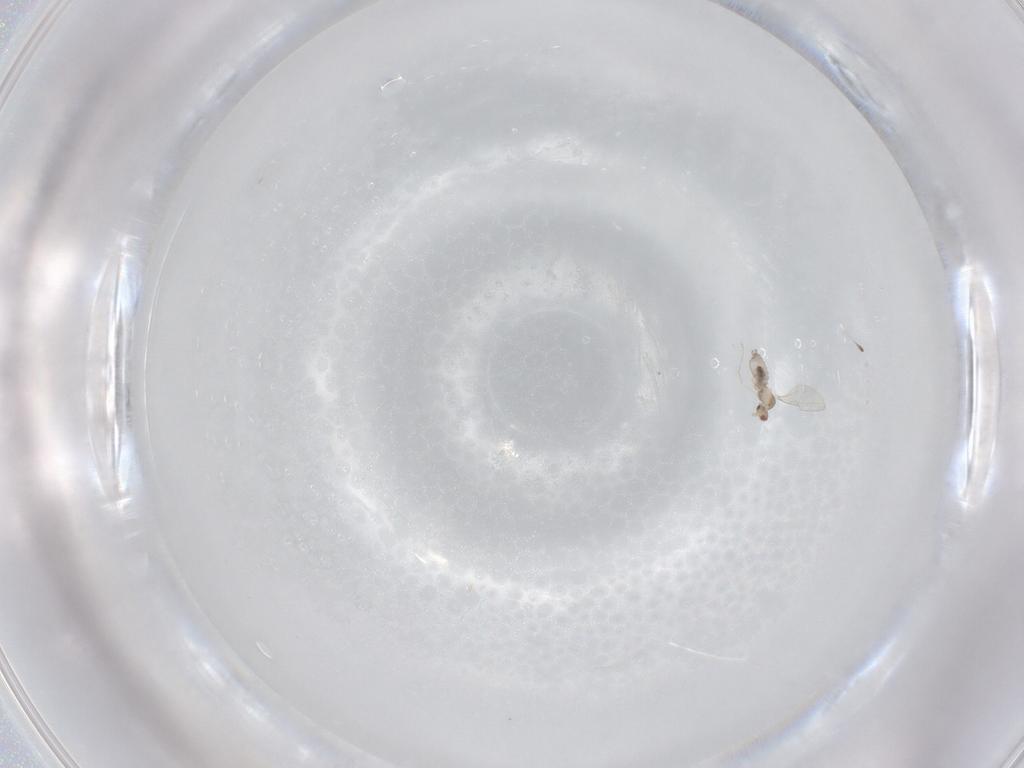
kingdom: Animalia
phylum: Arthropoda
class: Insecta
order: Diptera
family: Cecidomyiidae
